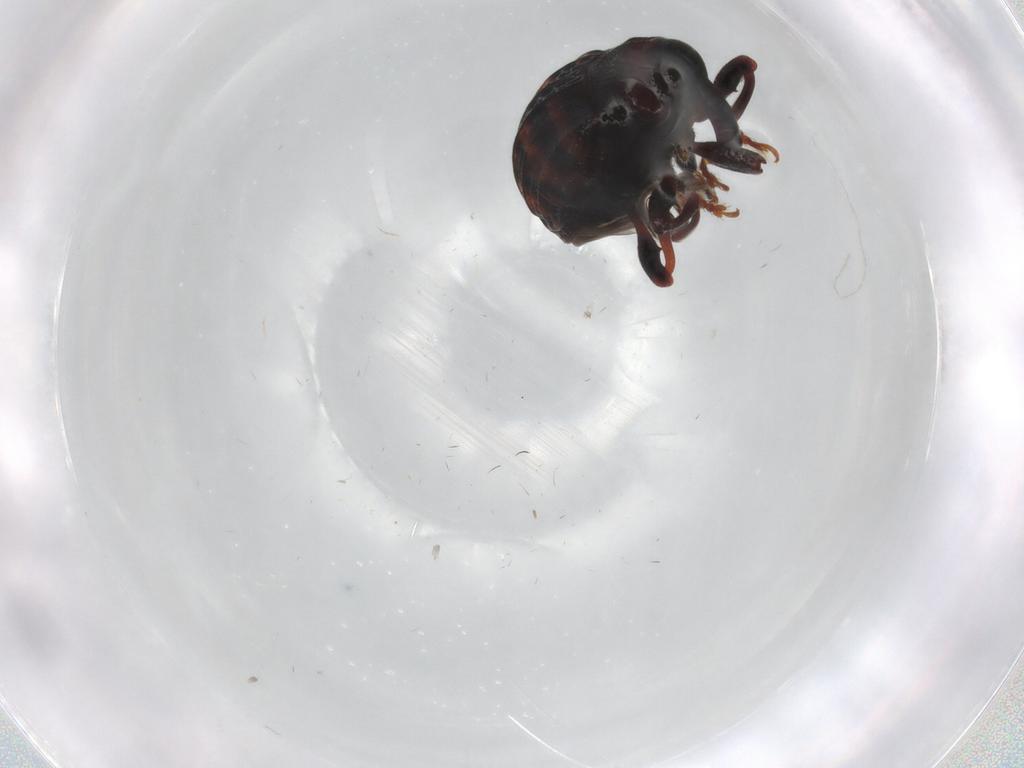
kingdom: Animalia
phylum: Arthropoda
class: Insecta
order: Coleoptera
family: Curculionidae
